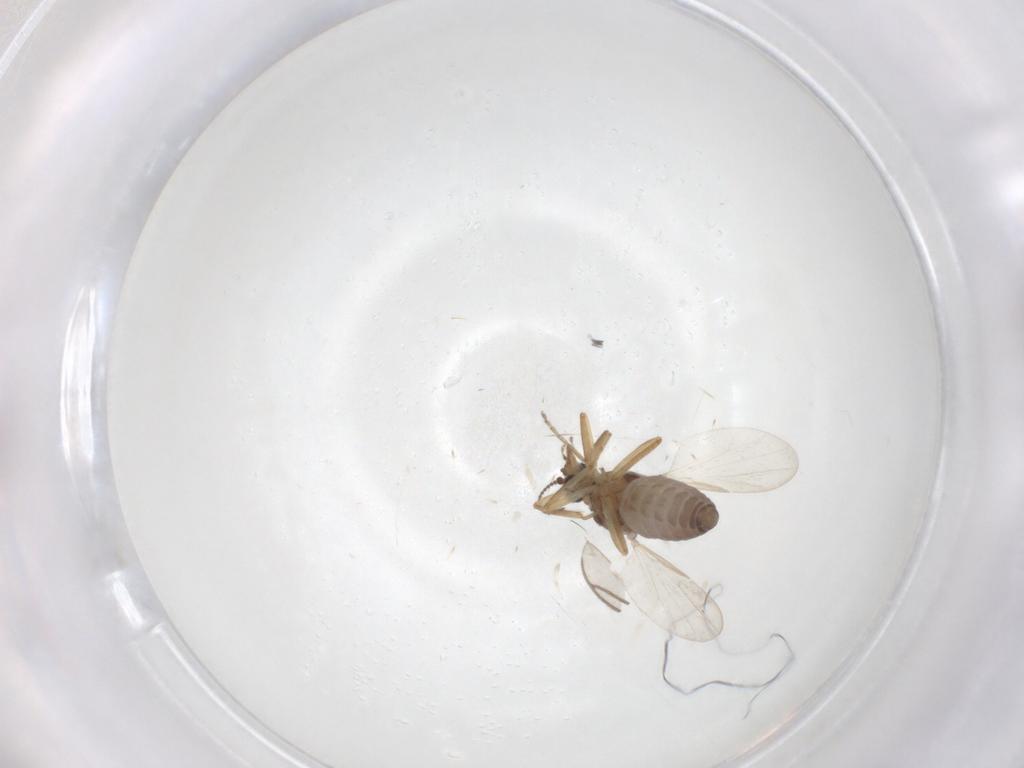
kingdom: Animalia
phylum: Arthropoda
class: Insecta
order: Diptera
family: Ceratopogonidae
